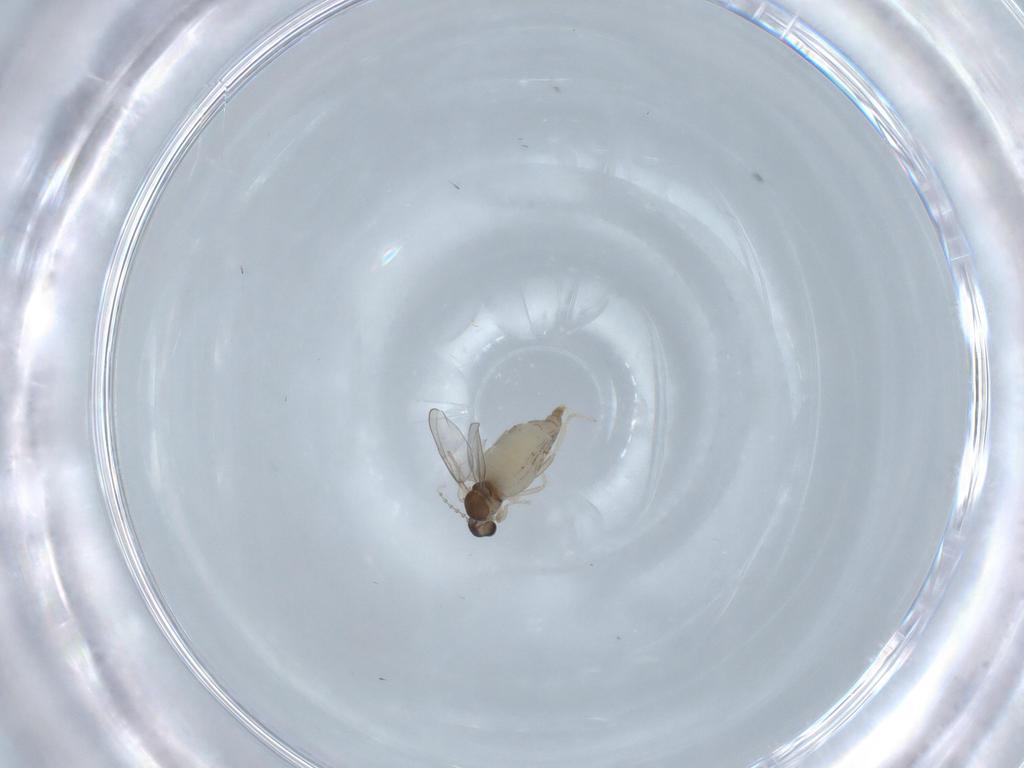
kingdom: Animalia
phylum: Arthropoda
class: Insecta
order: Diptera
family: Cecidomyiidae
